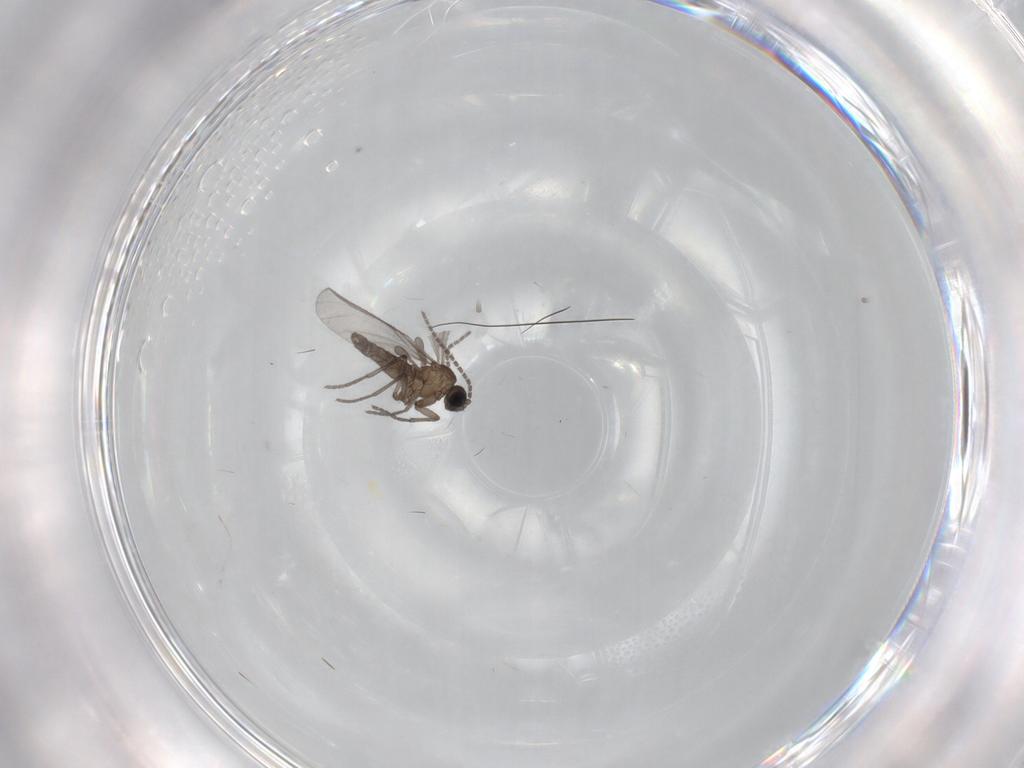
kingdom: Animalia
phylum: Arthropoda
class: Insecta
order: Diptera
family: Sciaridae
